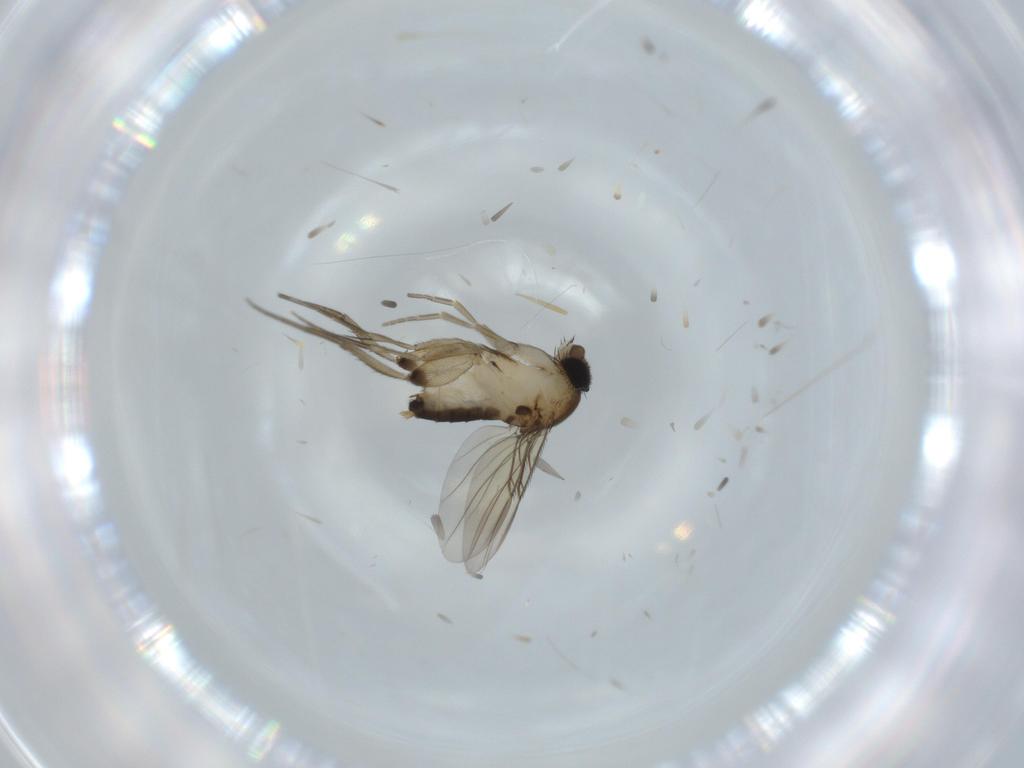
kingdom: Animalia
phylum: Arthropoda
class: Insecta
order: Diptera
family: Phoridae
